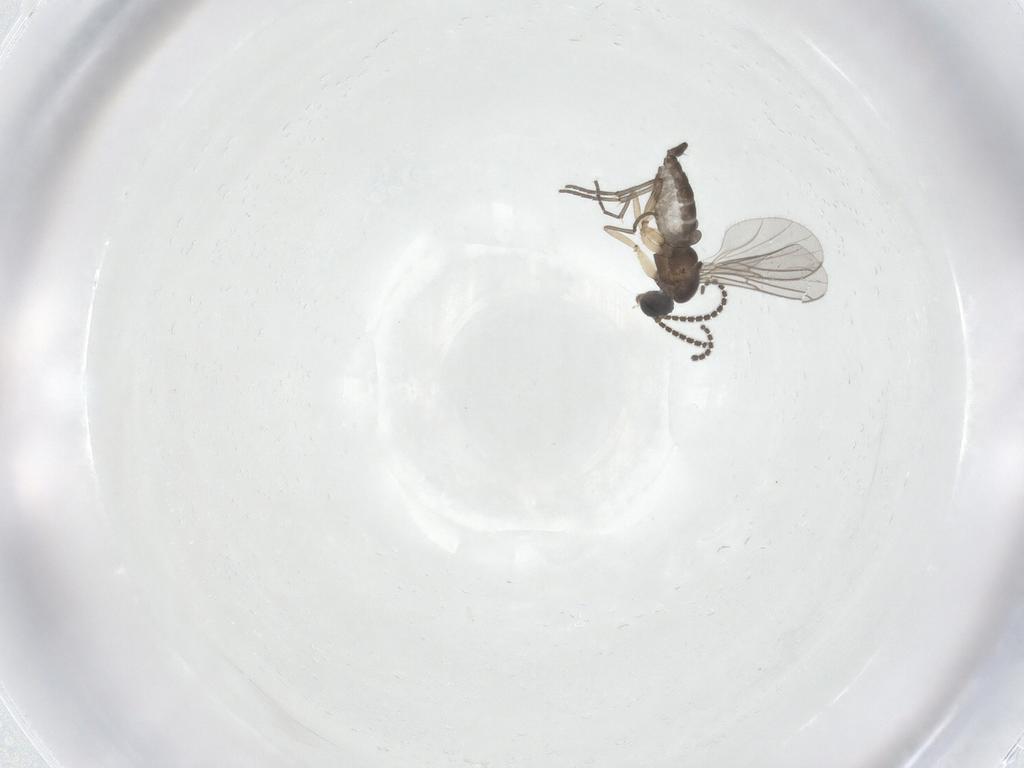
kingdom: Animalia
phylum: Arthropoda
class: Insecta
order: Diptera
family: Sciaridae
